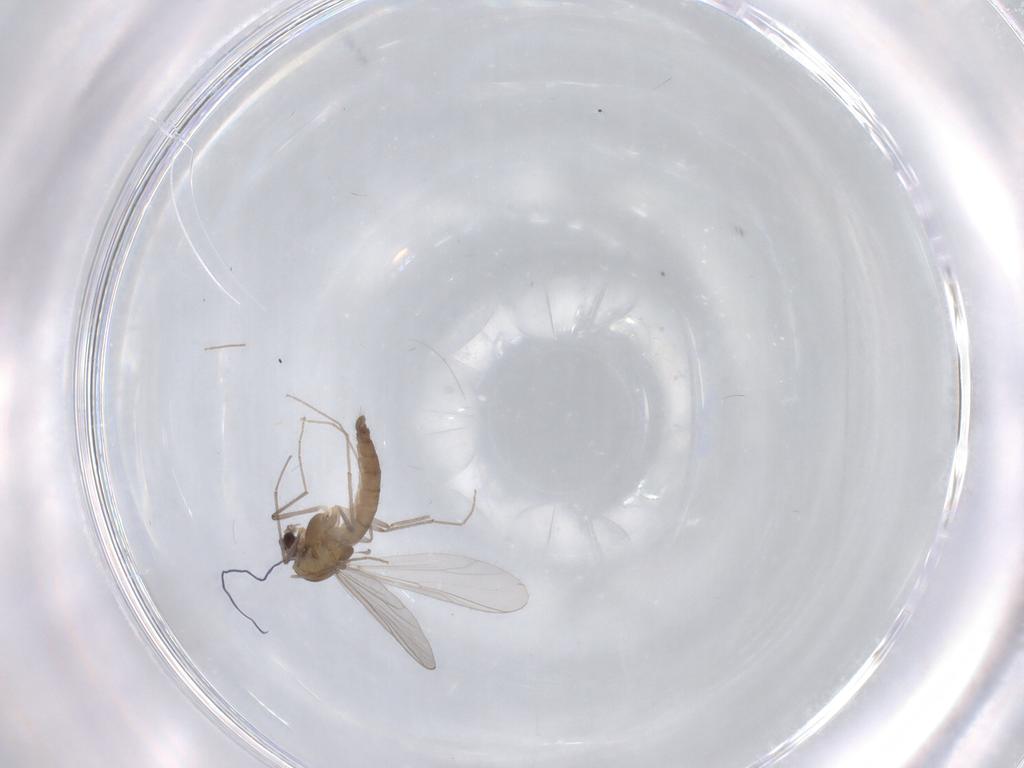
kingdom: Animalia
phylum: Arthropoda
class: Insecta
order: Diptera
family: Chironomidae
